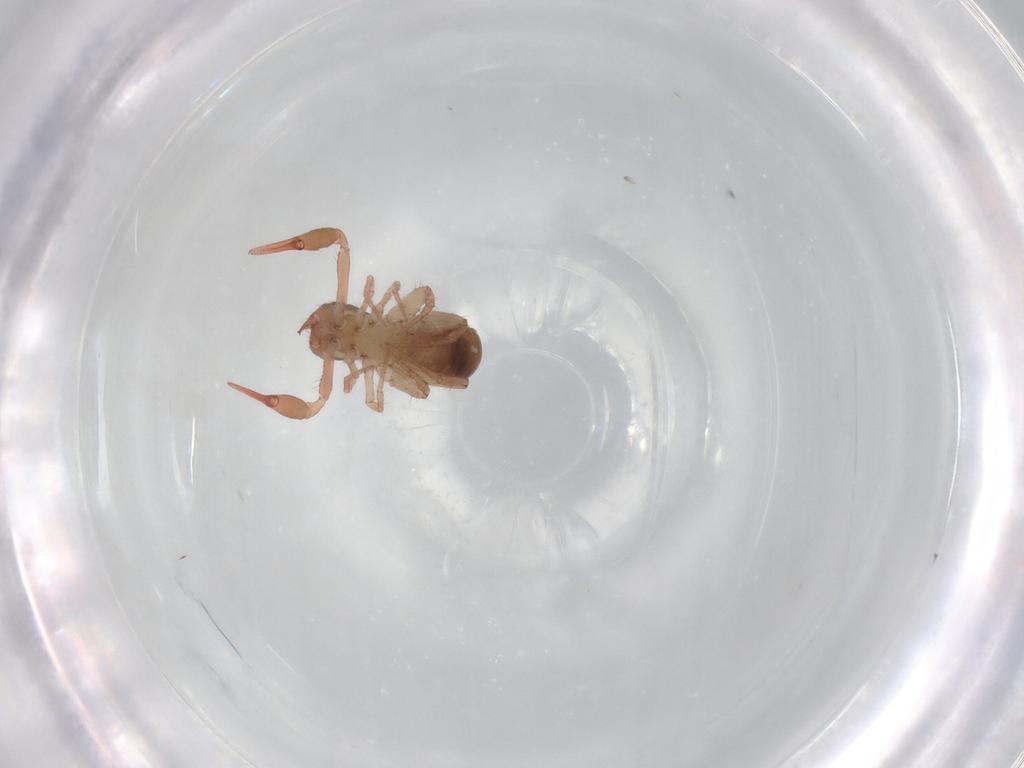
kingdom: Animalia
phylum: Arthropoda
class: Arachnida
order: Pseudoscorpiones
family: Chthoniidae
